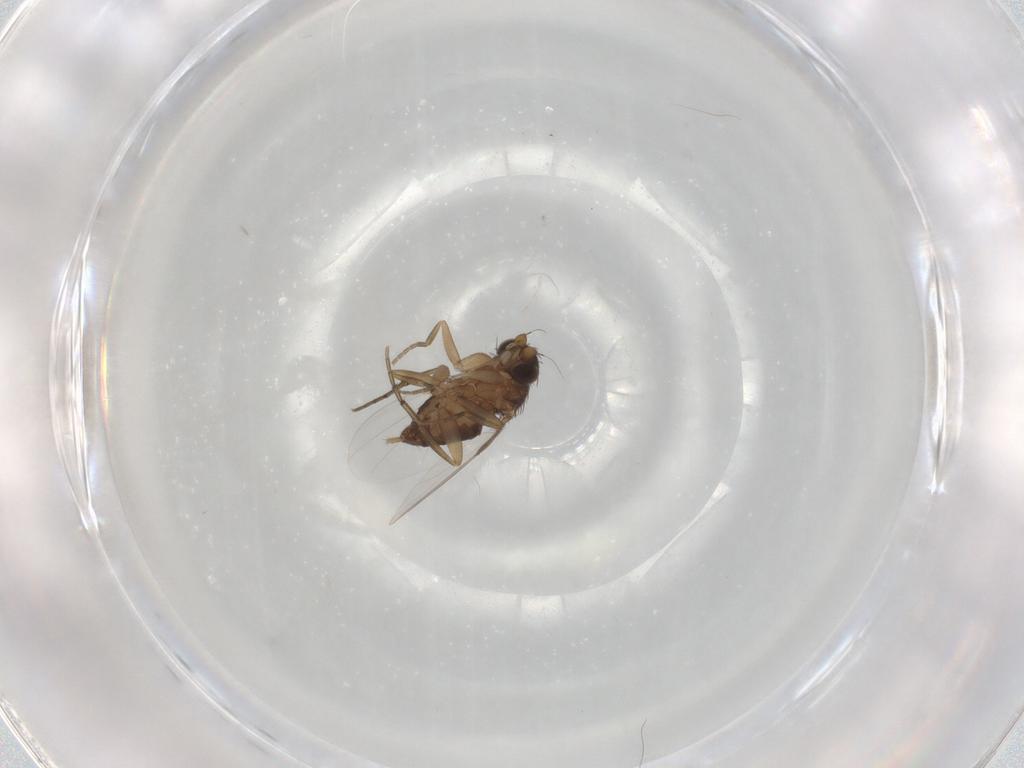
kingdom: Animalia
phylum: Arthropoda
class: Insecta
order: Diptera
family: Phoridae
